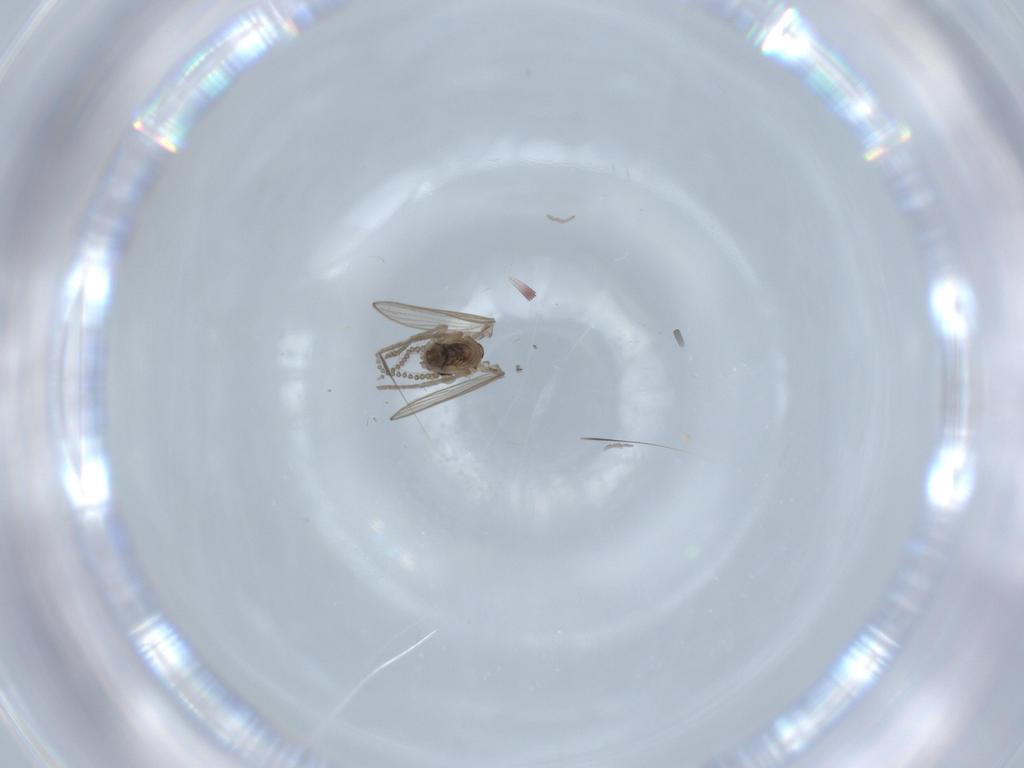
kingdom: Animalia
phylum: Arthropoda
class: Insecta
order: Diptera
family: Psychodidae
